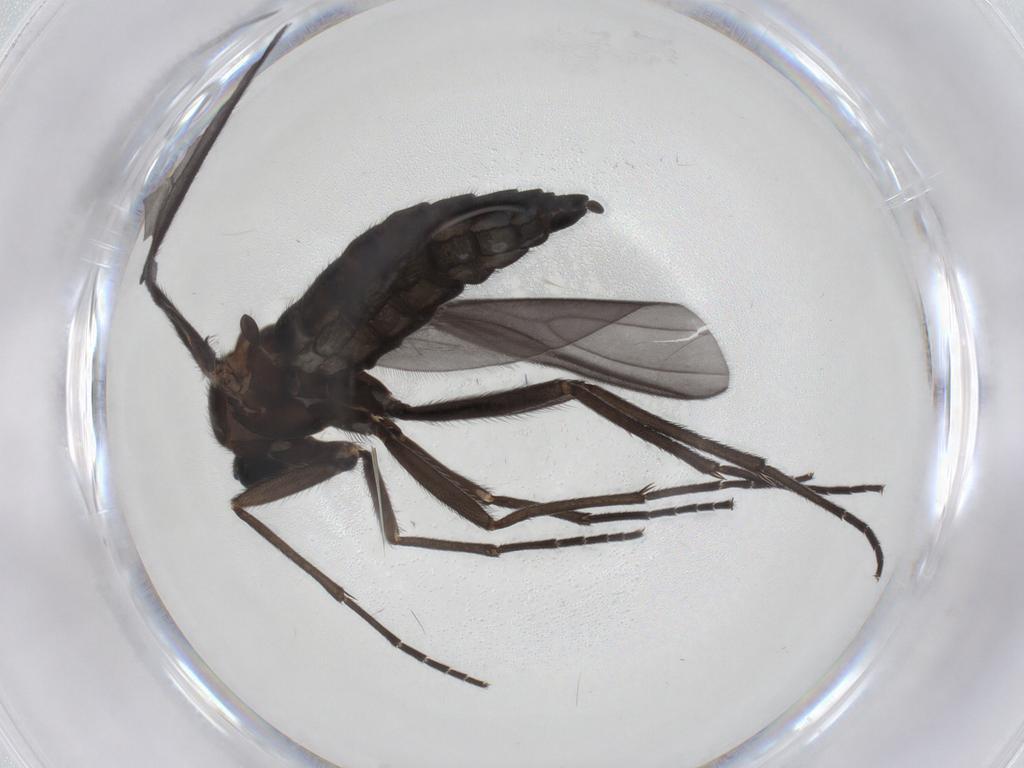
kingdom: Animalia
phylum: Arthropoda
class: Insecta
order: Diptera
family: Sciaridae
